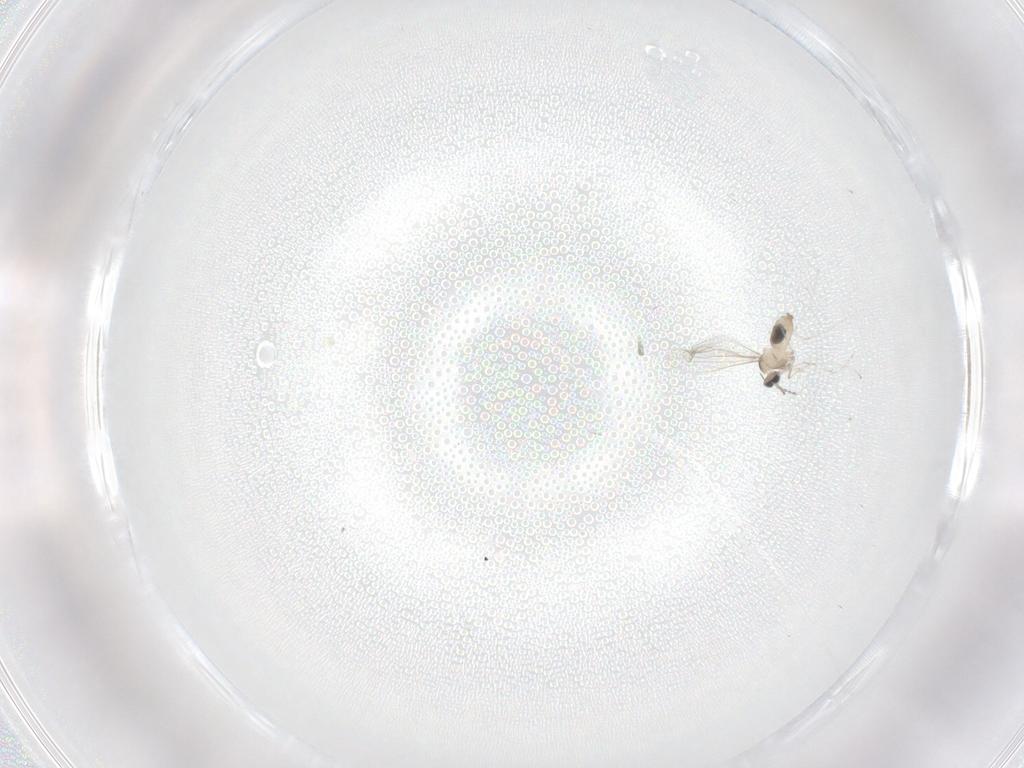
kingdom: Animalia
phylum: Arthropoda
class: Insecta
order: Diptera
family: Cecidomyiidae
